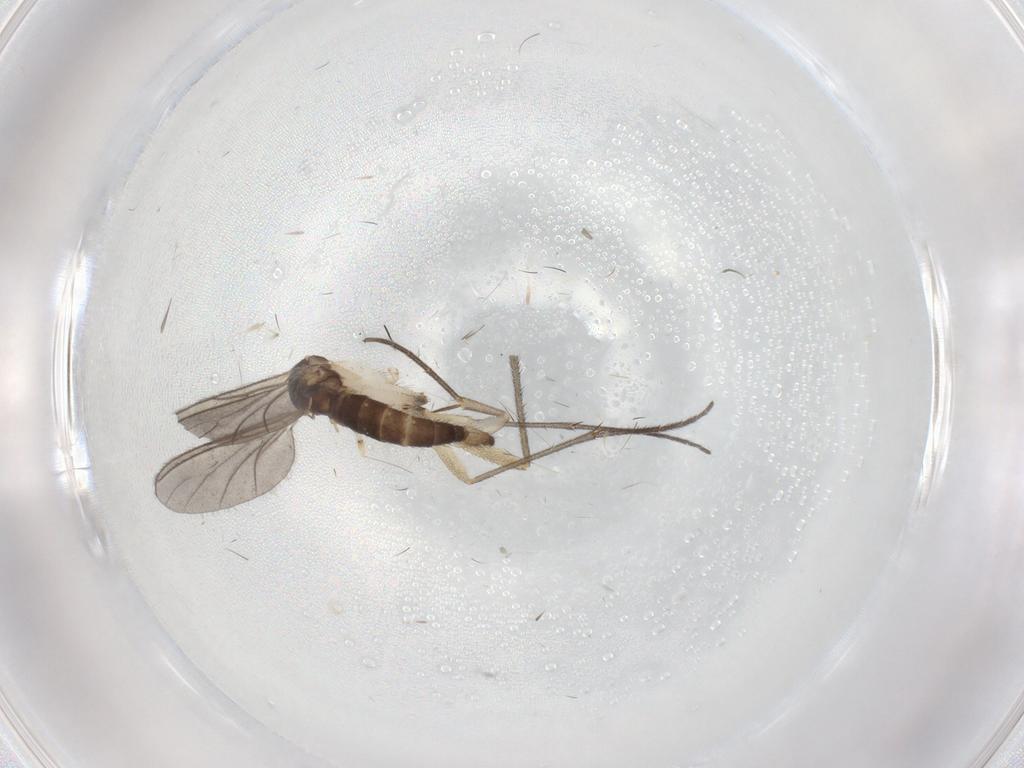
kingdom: Animalia
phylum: Arthropoda
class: Insecta
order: Diptera
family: Sciaridae
